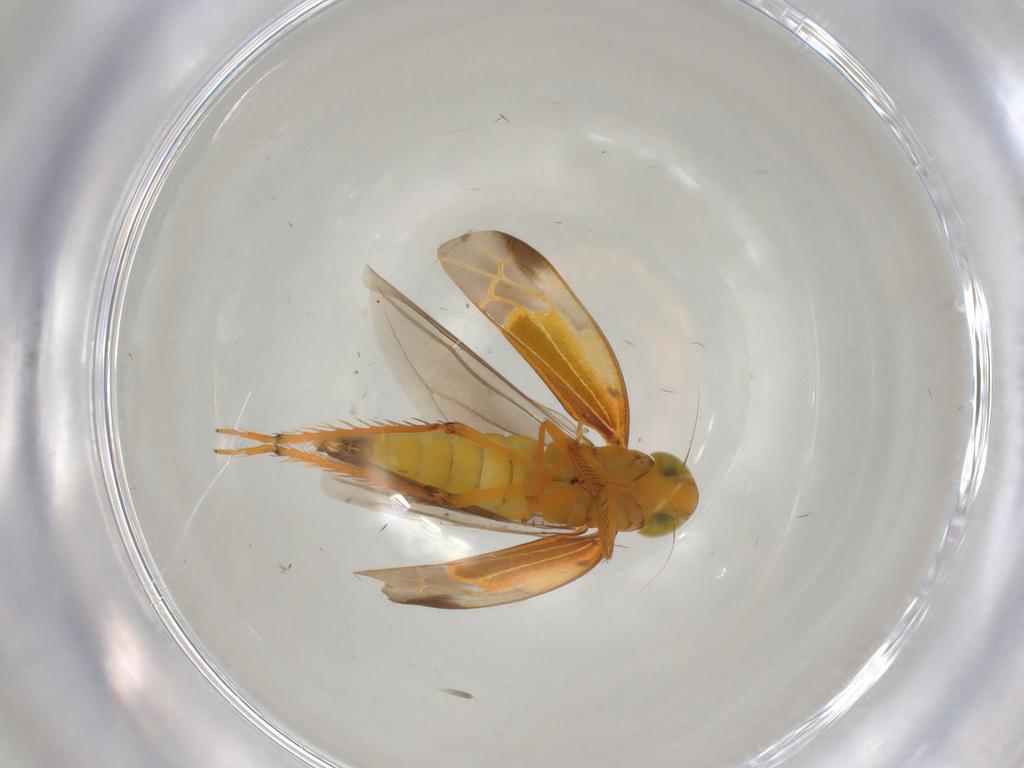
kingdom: Animalia
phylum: Arthropoda
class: Insecta
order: Hemiptera
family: Cicadellidae
